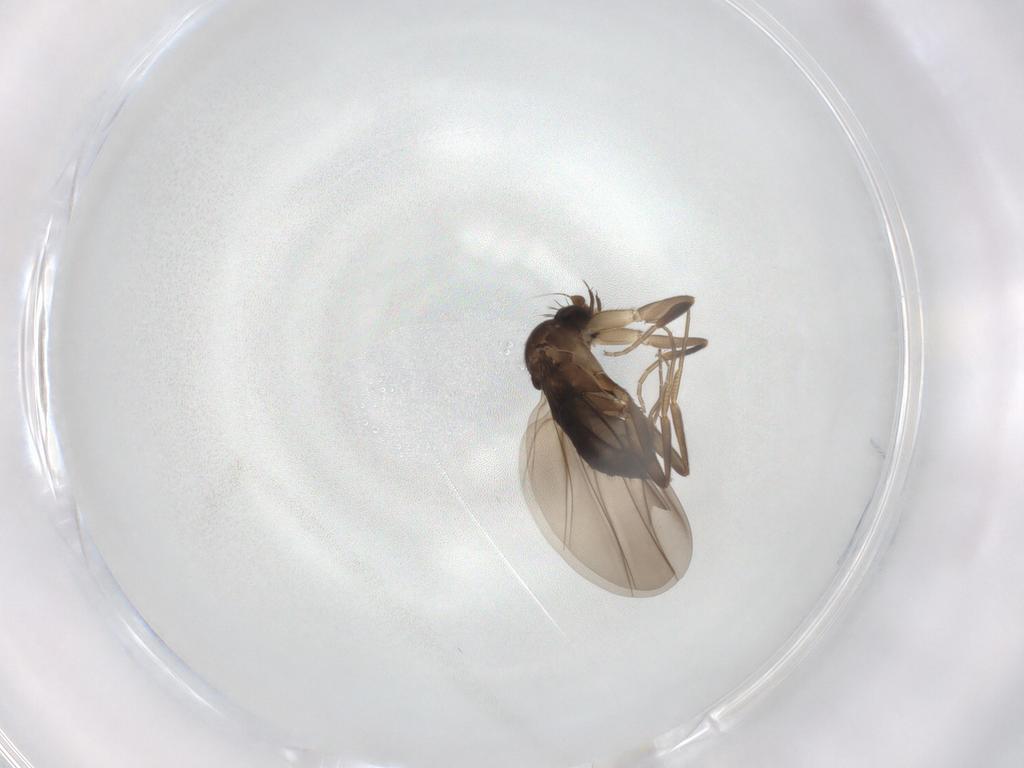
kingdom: Animalia
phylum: Arthropoda
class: Insecta
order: Diptera
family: Phoridae
